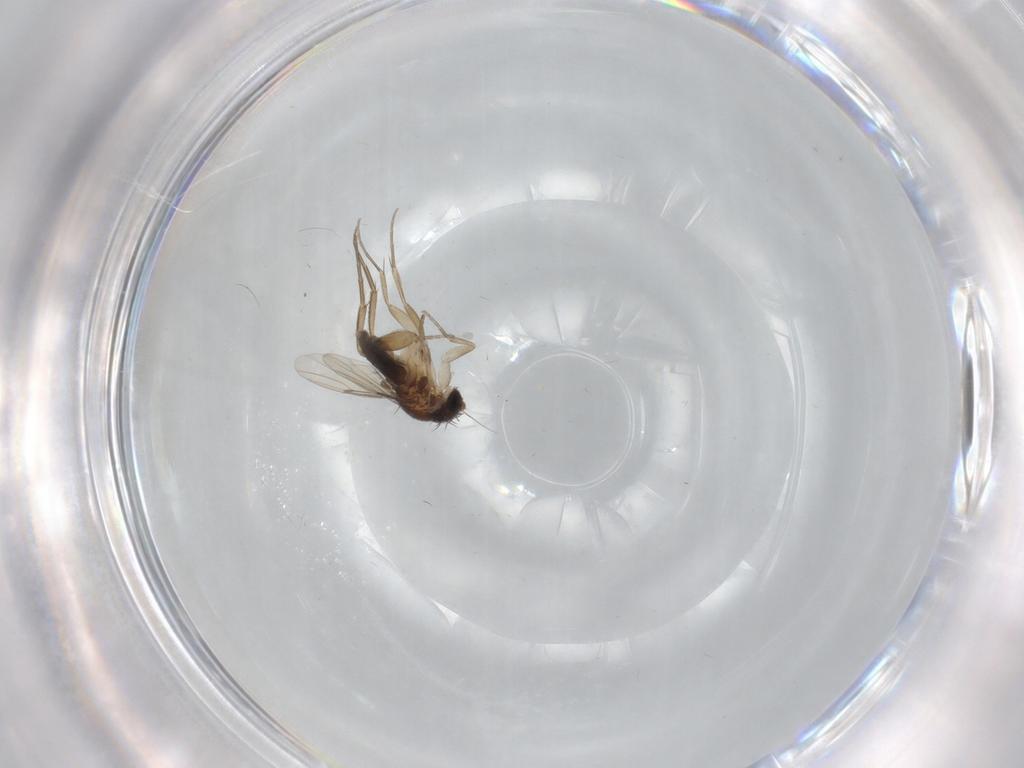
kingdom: Animalia
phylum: Arthropoda
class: Insecta
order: Diptera
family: Phoridae
